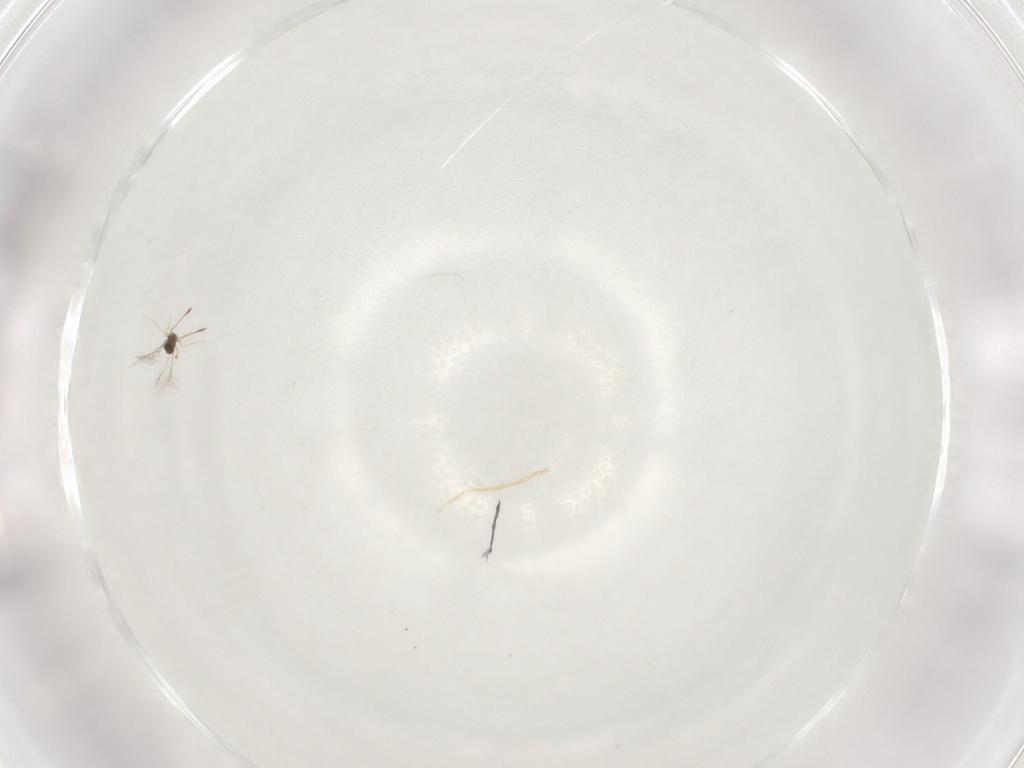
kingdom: Animalia
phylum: Arthropoda
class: Insecta
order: Hymenoptera
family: Mymaridae
